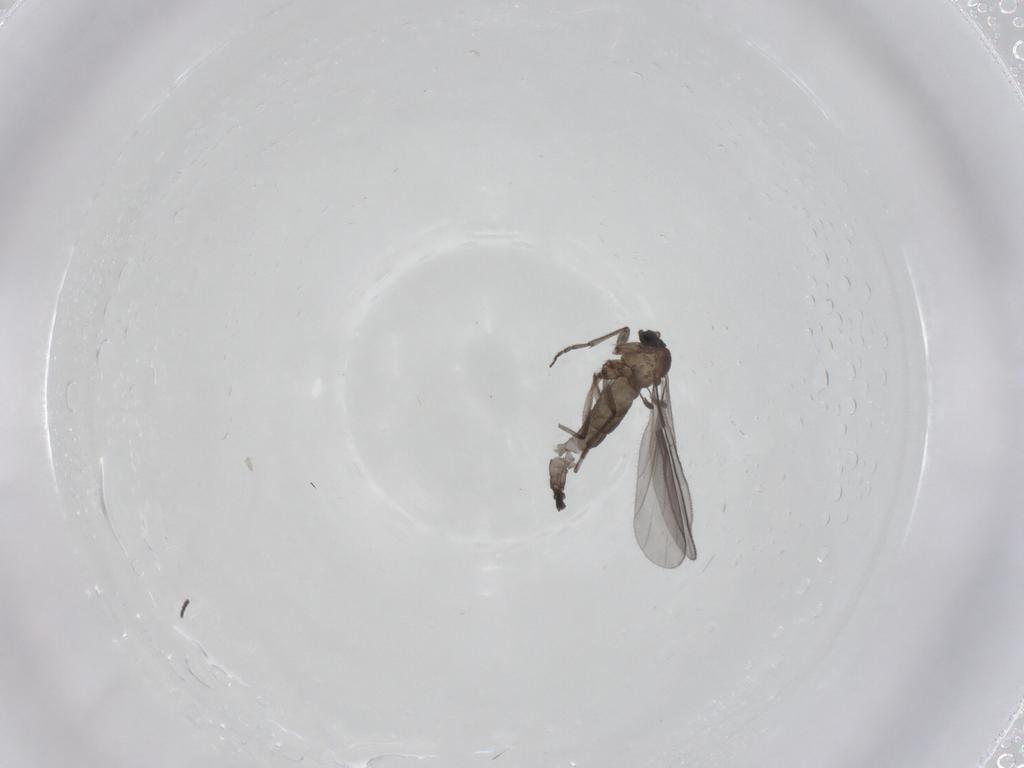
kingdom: Animalia
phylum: Arthropoda
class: Insecta
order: Diptera
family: Sciaridae
